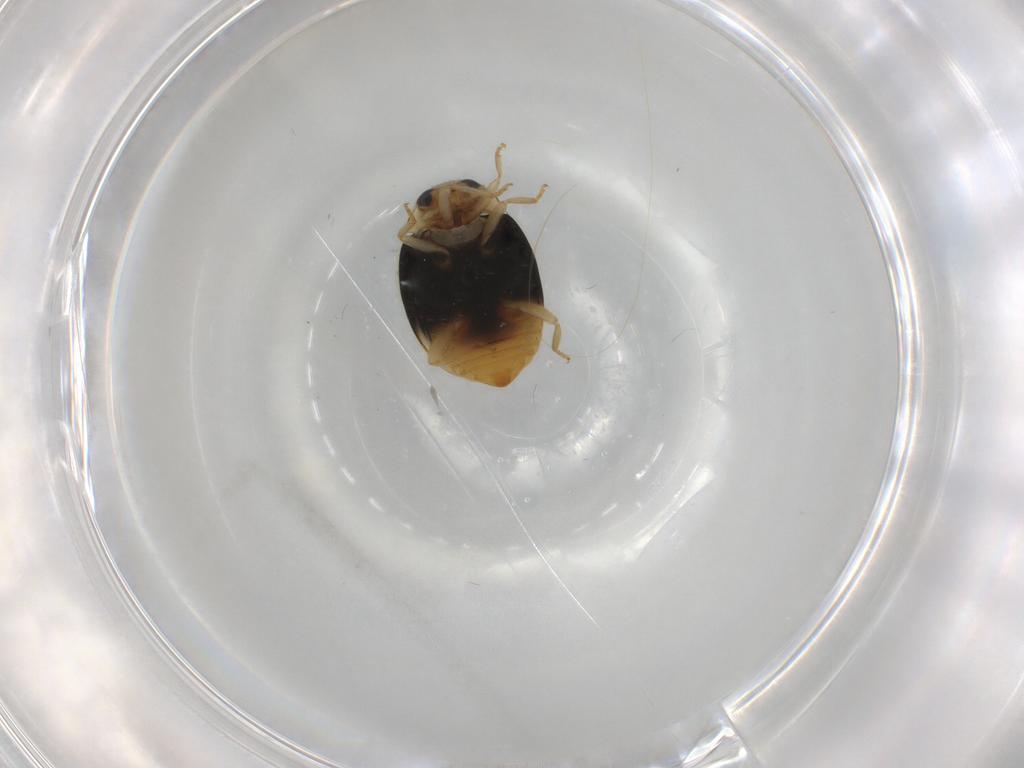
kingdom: Animalia
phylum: Arthropoda
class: Insecta
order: Coleoptera
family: Coccinellidae
